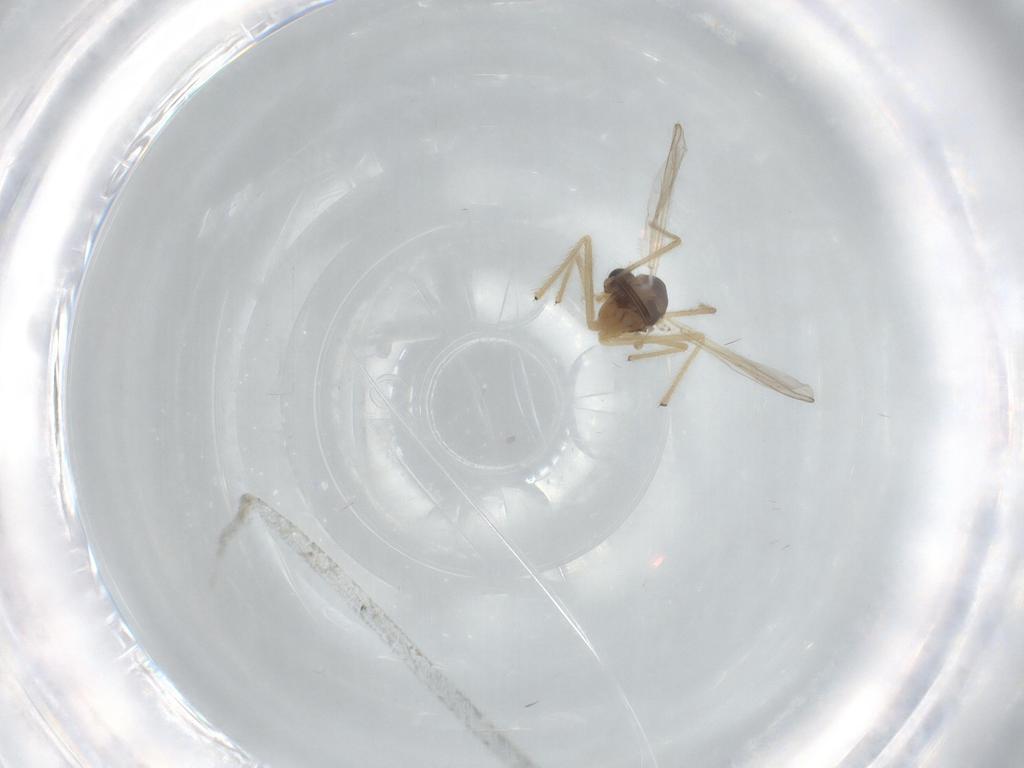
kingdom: Animalia
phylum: Arthropoda
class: Insecta
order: Diptera
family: Chironomidae
